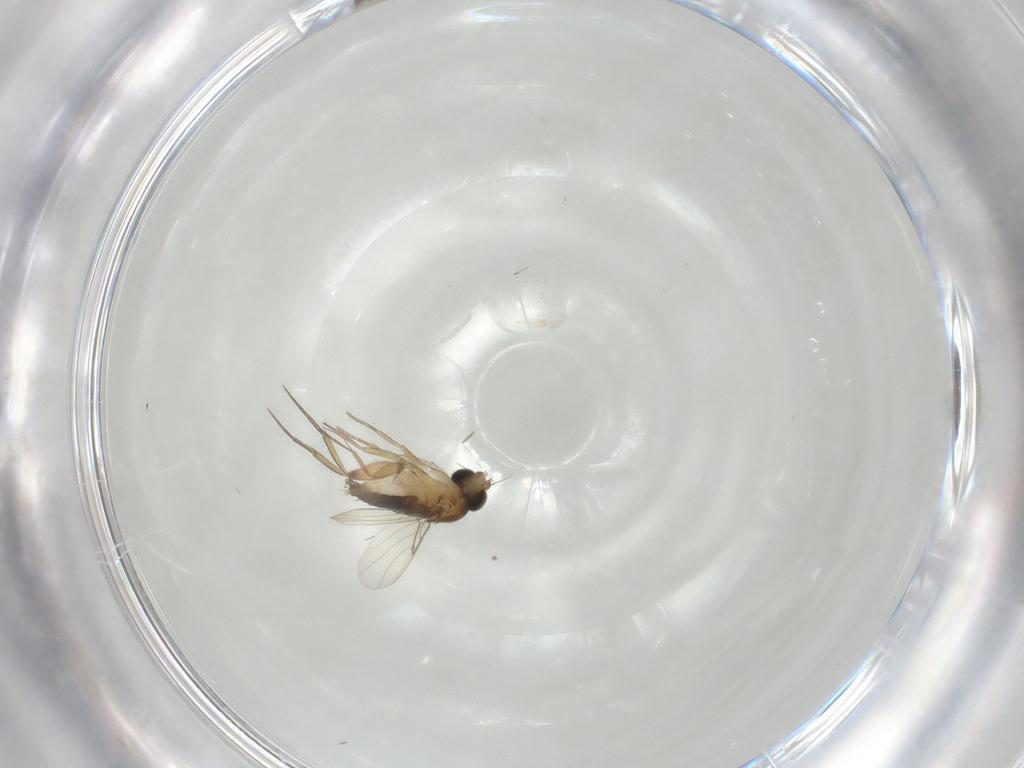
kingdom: Animalia
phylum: Arthropoda
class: Insecta
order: Diptera
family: Phoridae
